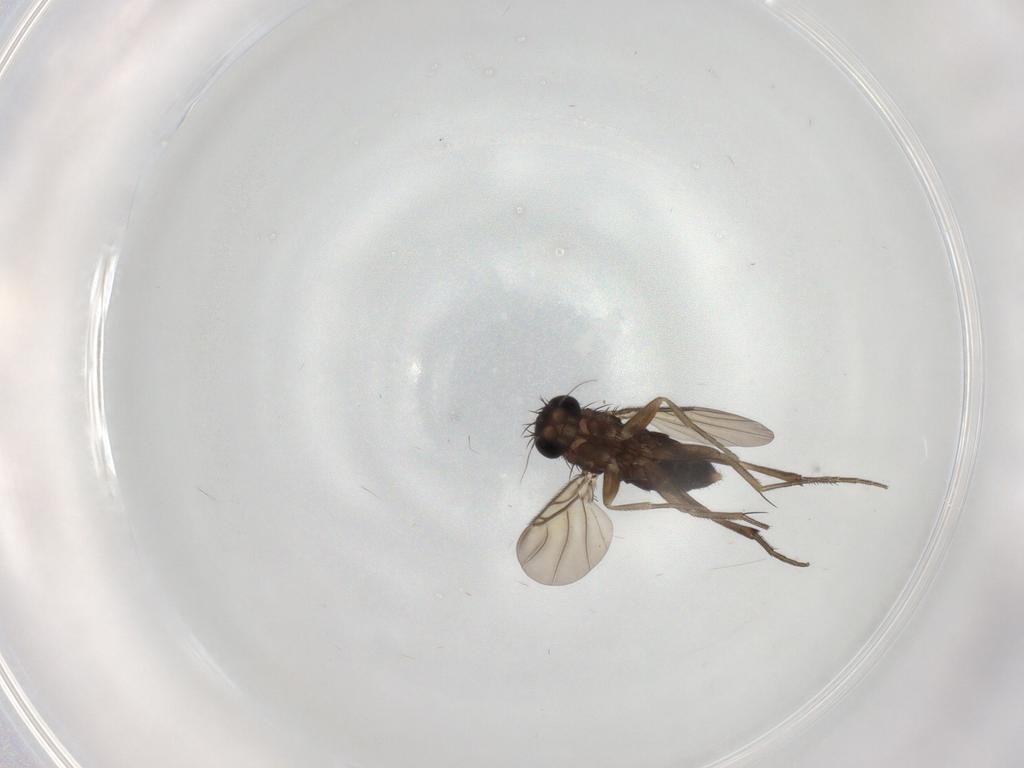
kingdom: Animalia
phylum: Arthropoda
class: Insecta
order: Diptera
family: Phoridae
